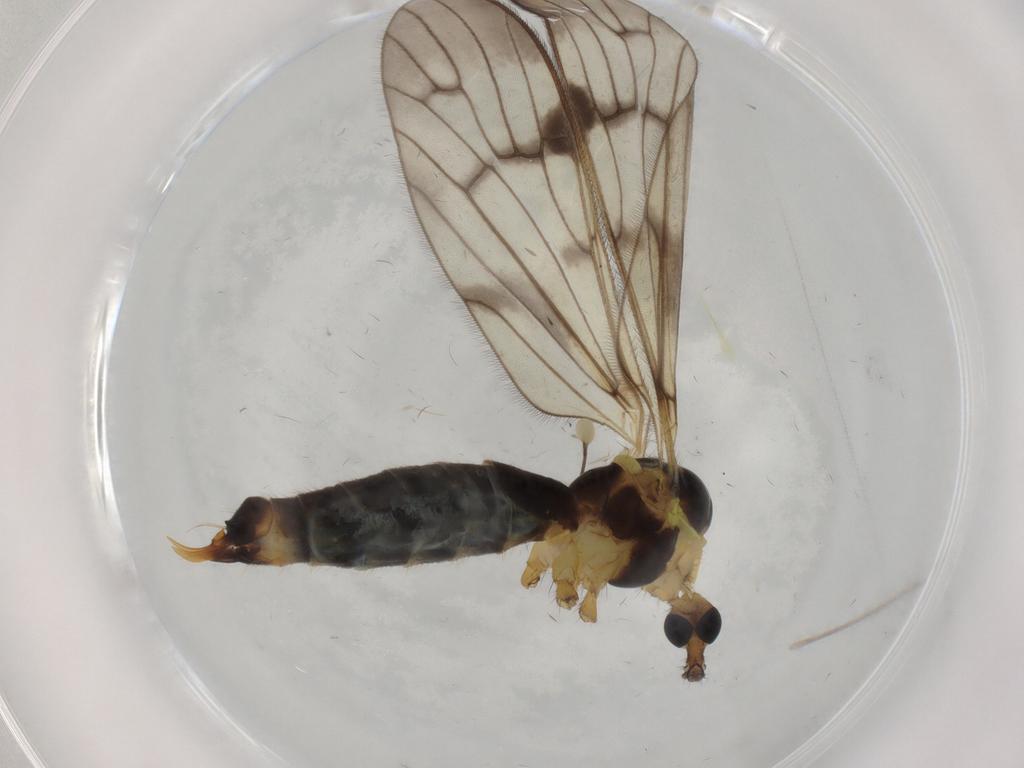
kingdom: Animalia
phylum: Arthropoda
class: Insecta
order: Diptera
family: Limoniidae
